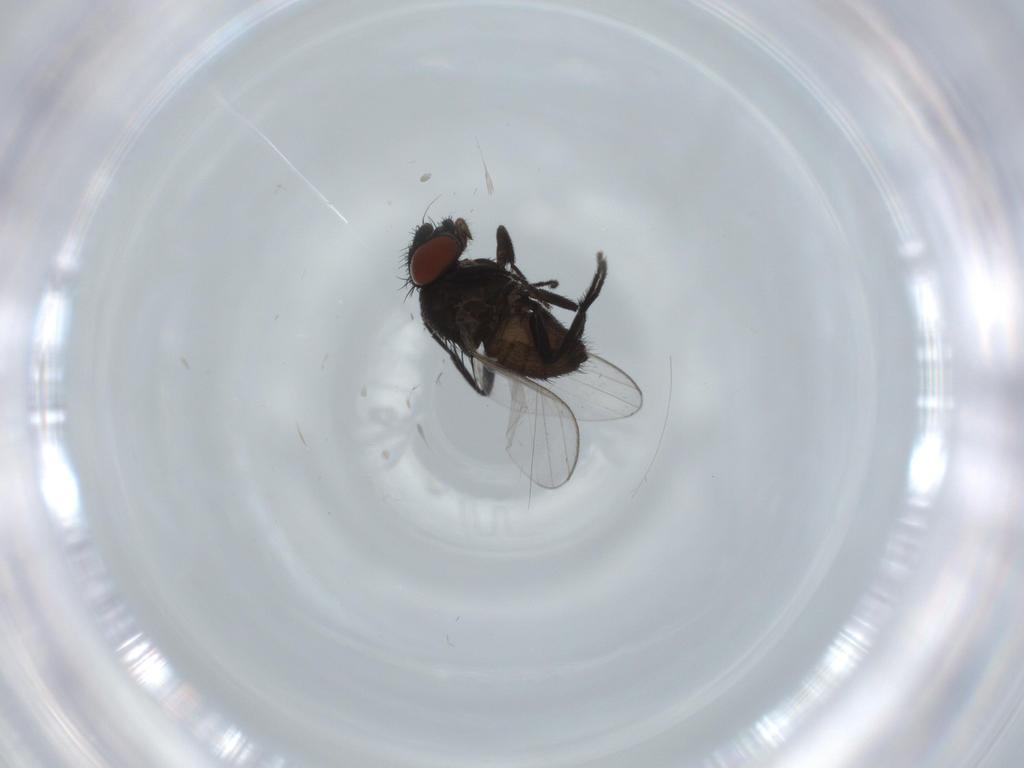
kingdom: Animalia
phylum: Arthropoda
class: Insecta
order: Diptera
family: Milichiidae
